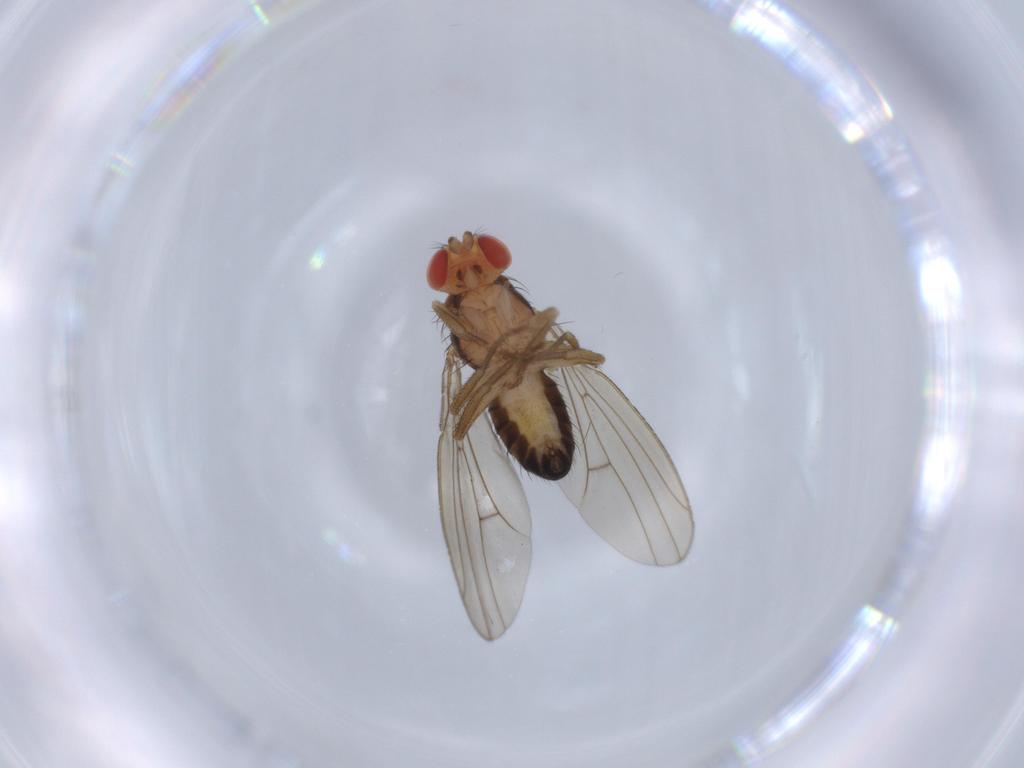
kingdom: Animalia
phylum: Arthropoda
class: Insecta
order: Diptera
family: Drosophilidae
